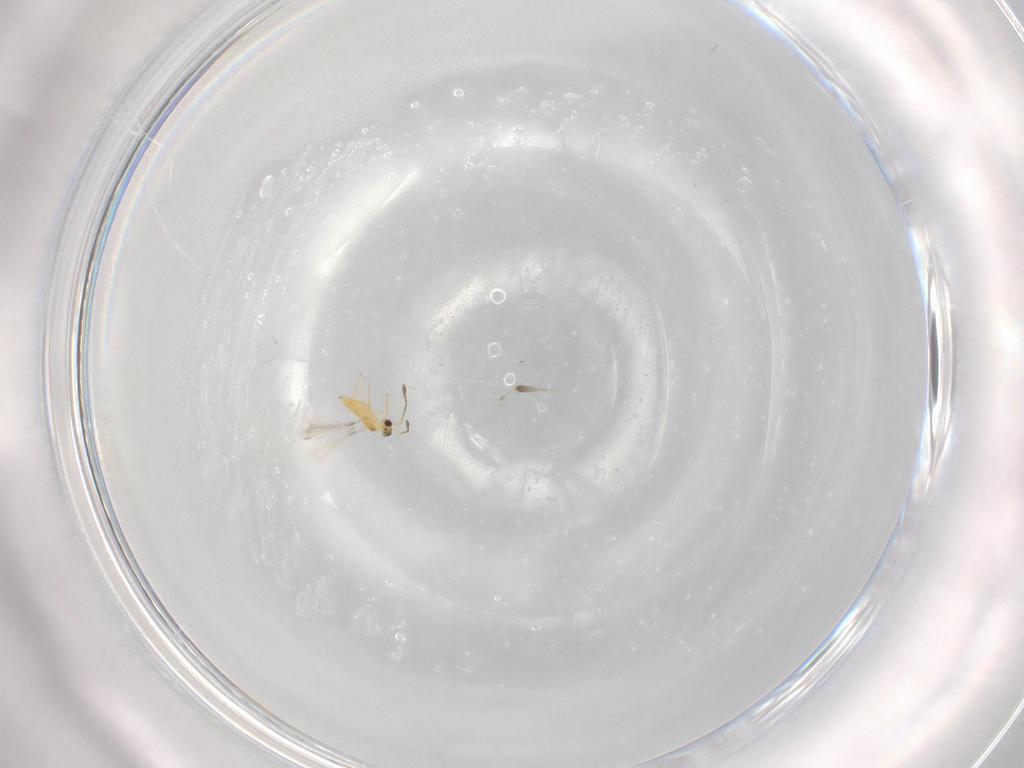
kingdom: Animalia
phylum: Arthropoda
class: Insecta
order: Hymenoptera
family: Mymaridae
